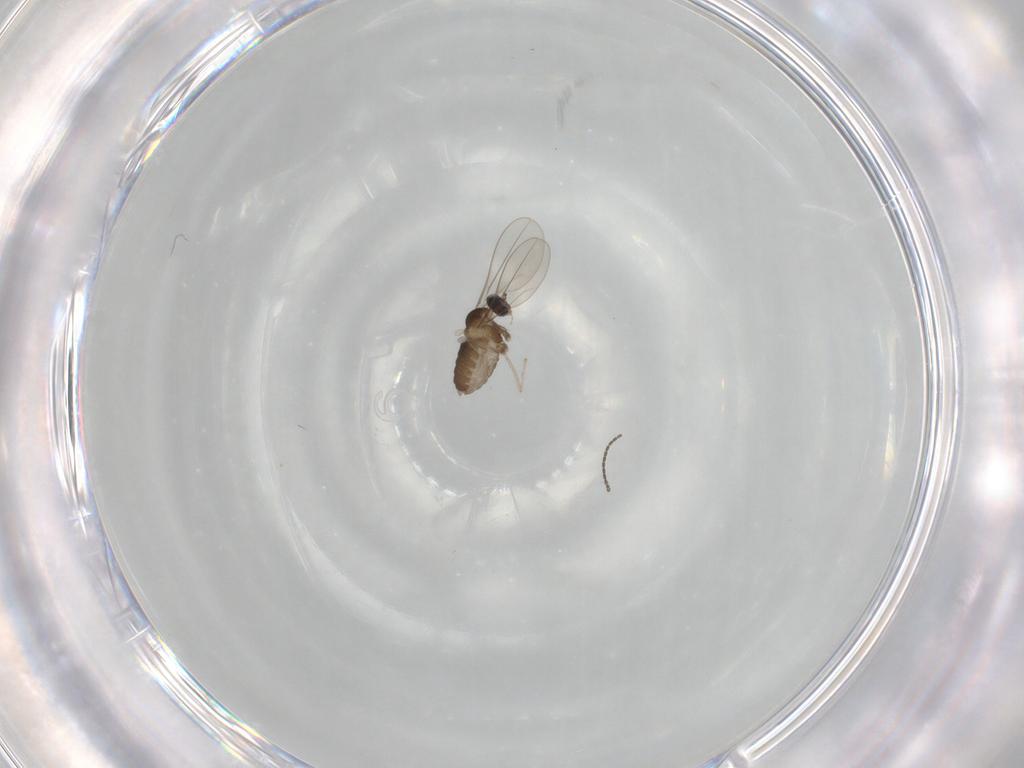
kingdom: Animalia
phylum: Arthropoda
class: Insecta
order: Diptera
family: Cecidomyiidae
